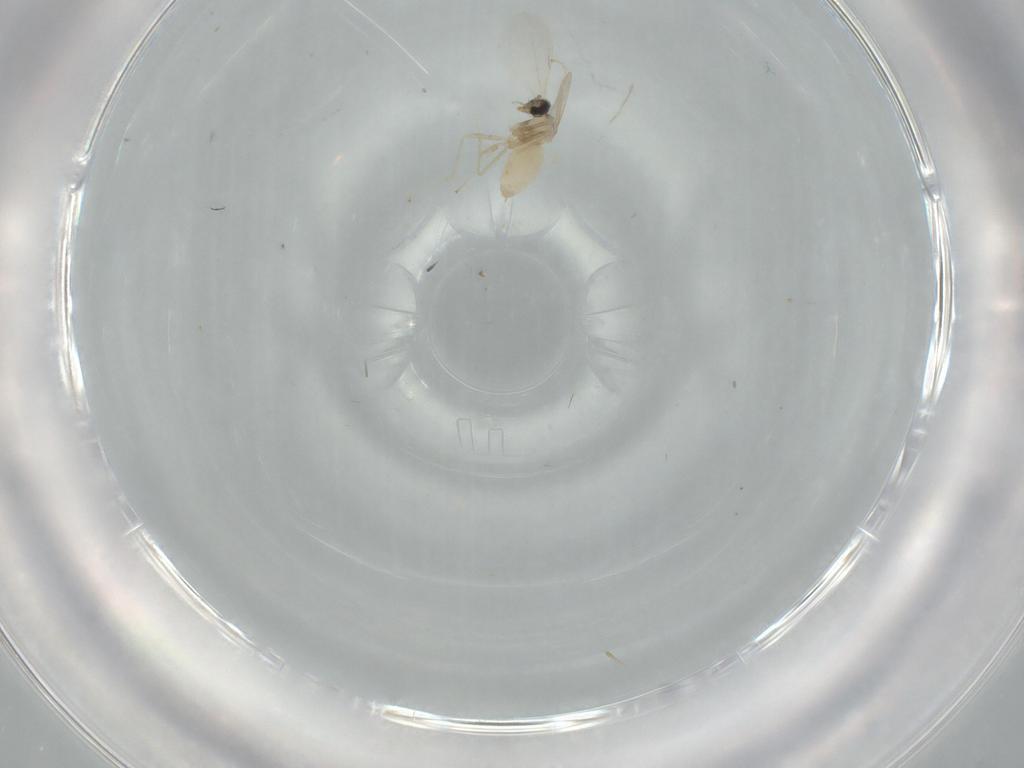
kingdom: Animalia
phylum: Arthropoda
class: Insecta
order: Diptera
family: Cecidomyiidae
